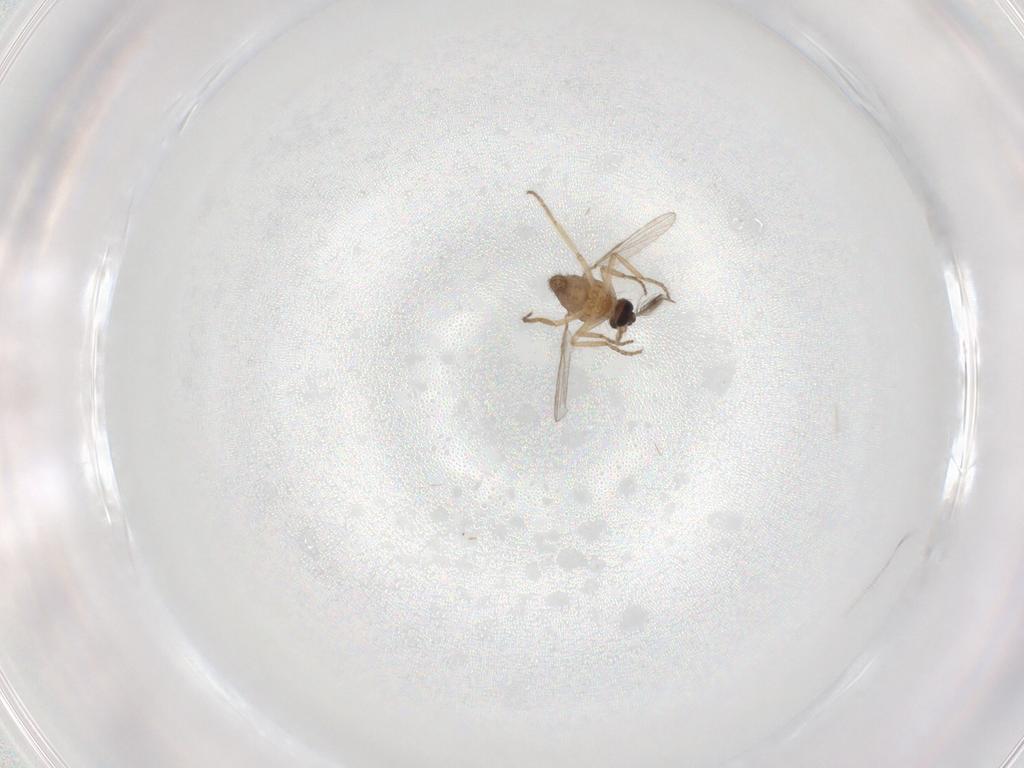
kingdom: Animalia
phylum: Arthropoda
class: Insecta
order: Diptera
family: Ceratopogonidae
